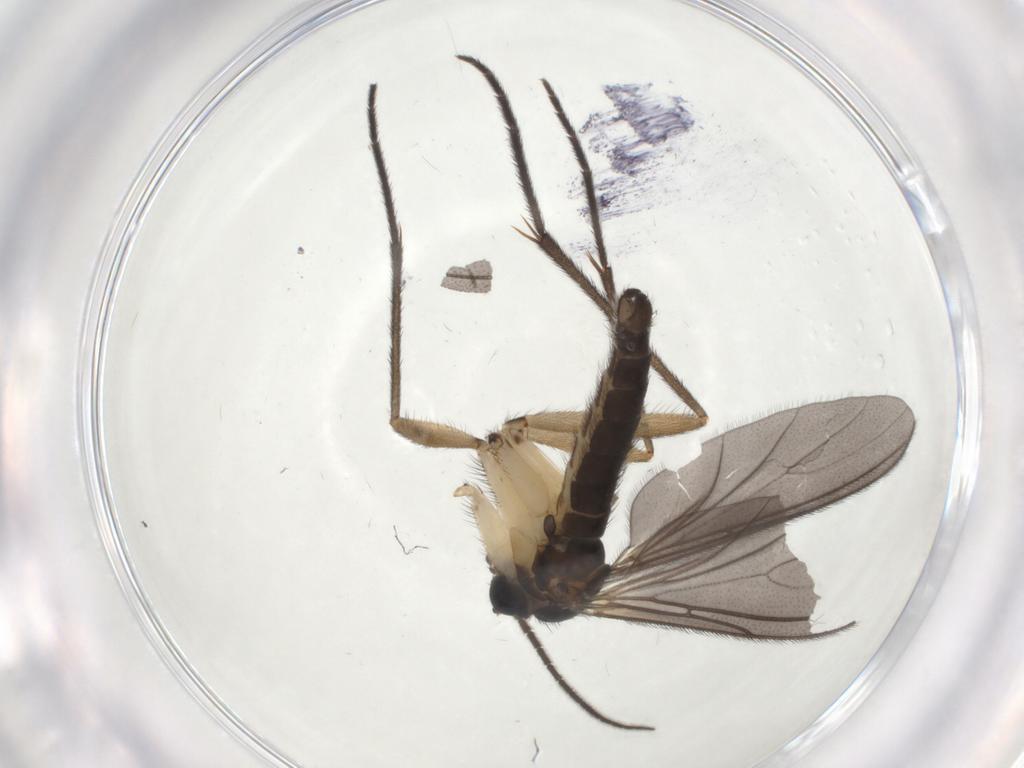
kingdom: Animalia
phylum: Arthropoda
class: Insecta
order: Diptera
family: Sciaridae
